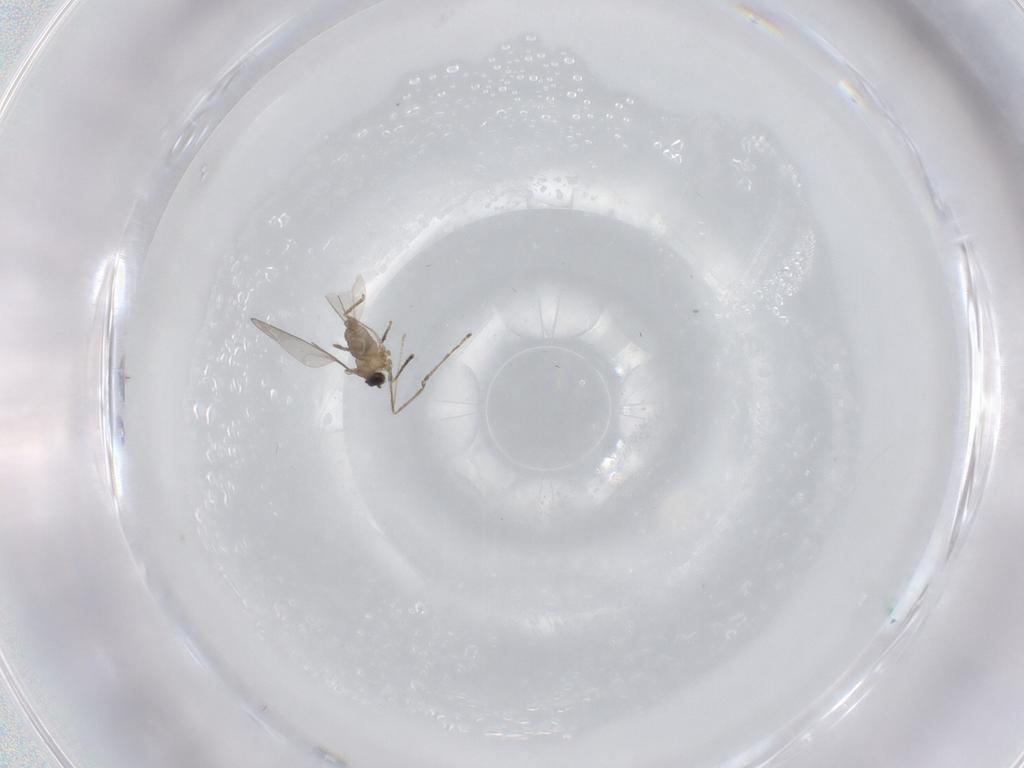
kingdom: Animalia
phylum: Arthropoda
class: Insecta
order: Diptera
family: Cecidomyiidae
